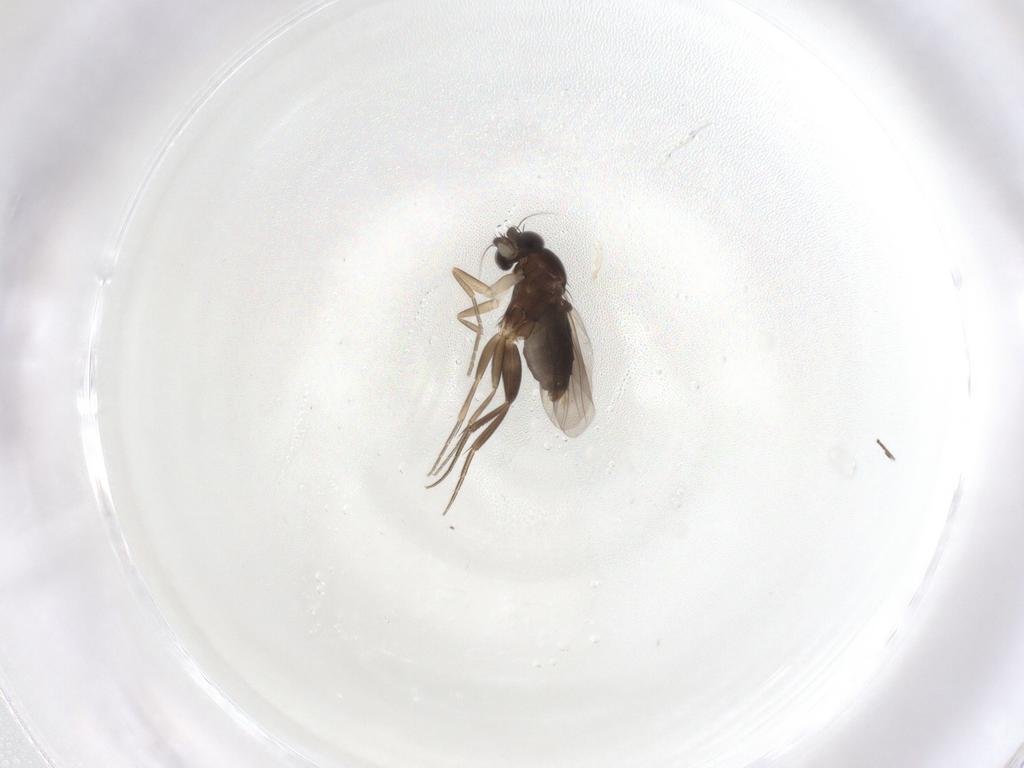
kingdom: Animalia
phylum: Arthropoda
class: Insecta
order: Diptera
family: Phoridae
